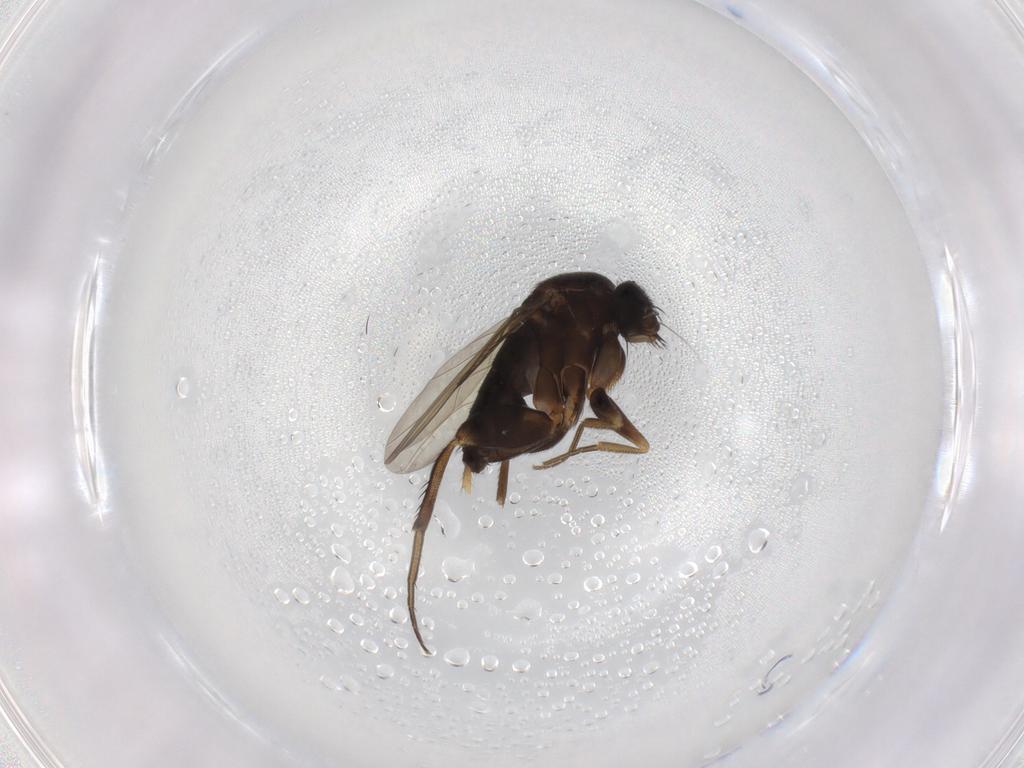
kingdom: Animalia
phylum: Arthropoda
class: Insecta
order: Diptera
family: Phoridae
